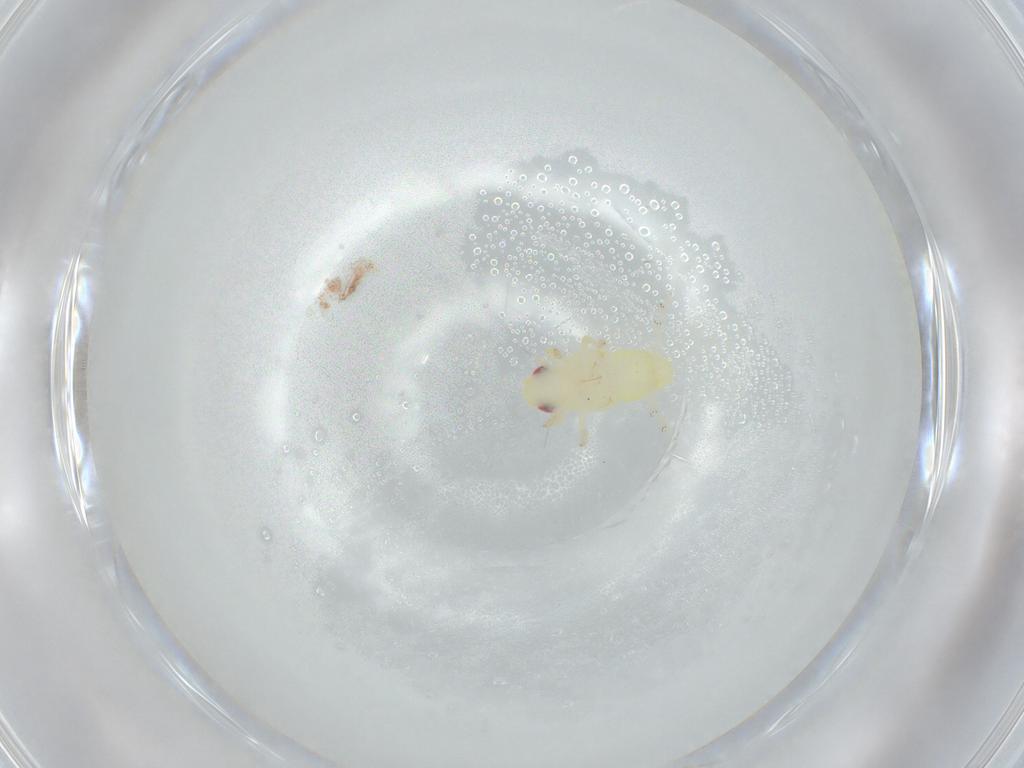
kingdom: Animalia
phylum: Arthropoda
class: Insecta
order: Hemiptera
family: Tropiduchidae
